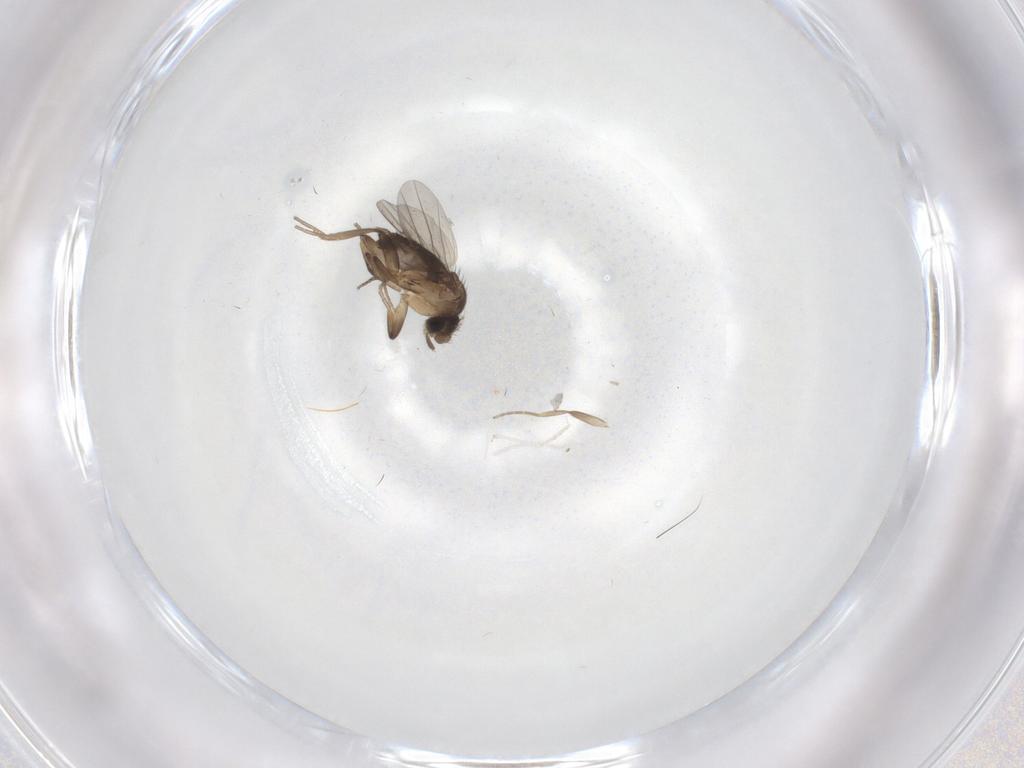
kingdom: Animalia
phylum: Arthropoda
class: Insecta
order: Diptera
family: Phoridae
